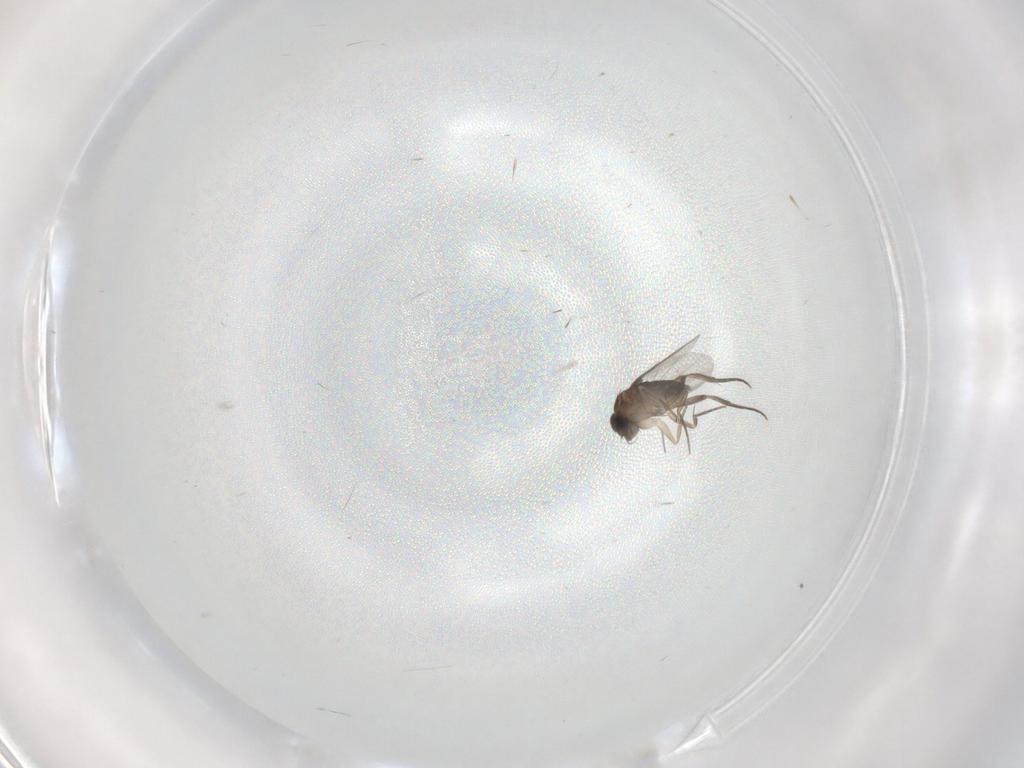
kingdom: Animalia
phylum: Arthropoda
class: Insecta
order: Diptera
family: Phoridae
